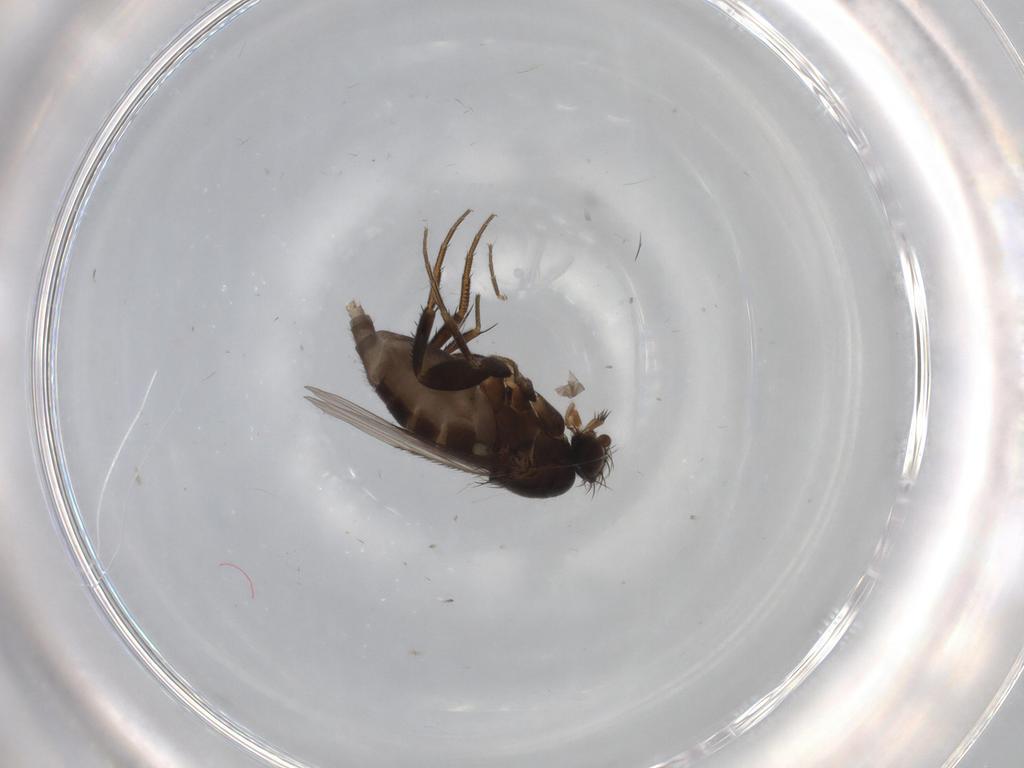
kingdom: Animalia
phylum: Arthropoda
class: Insecta
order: Diptera
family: Phoridae
